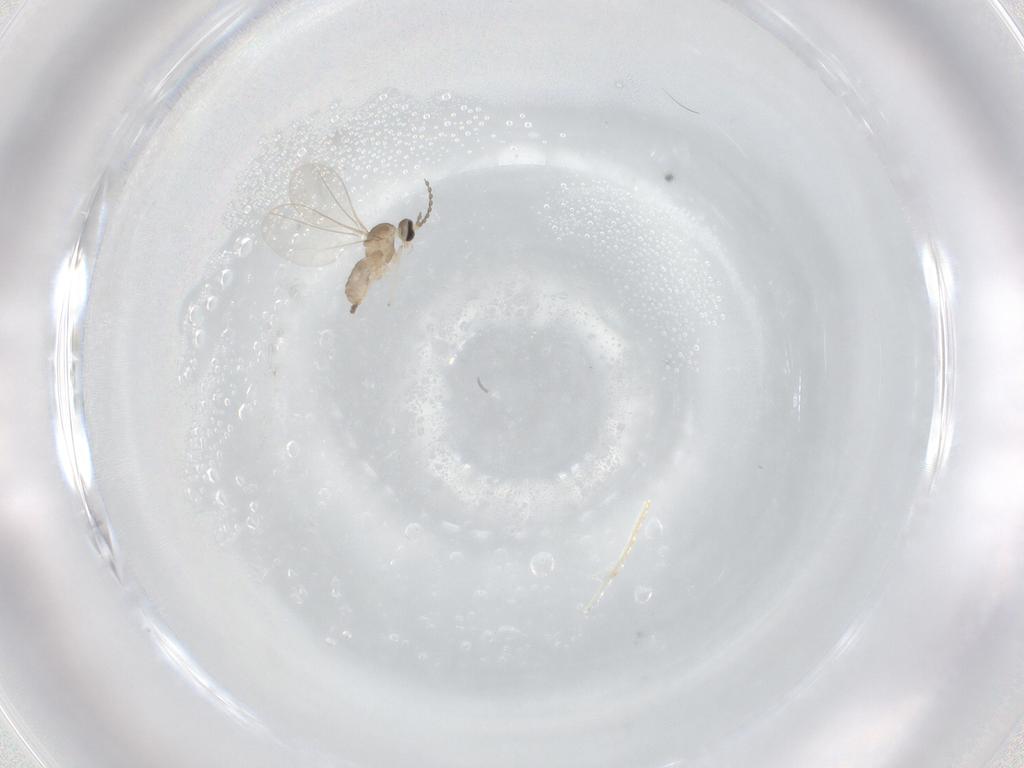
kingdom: Animalia
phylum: Arthropoda
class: Insecta
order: Diptera
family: Cecidomyiidae
